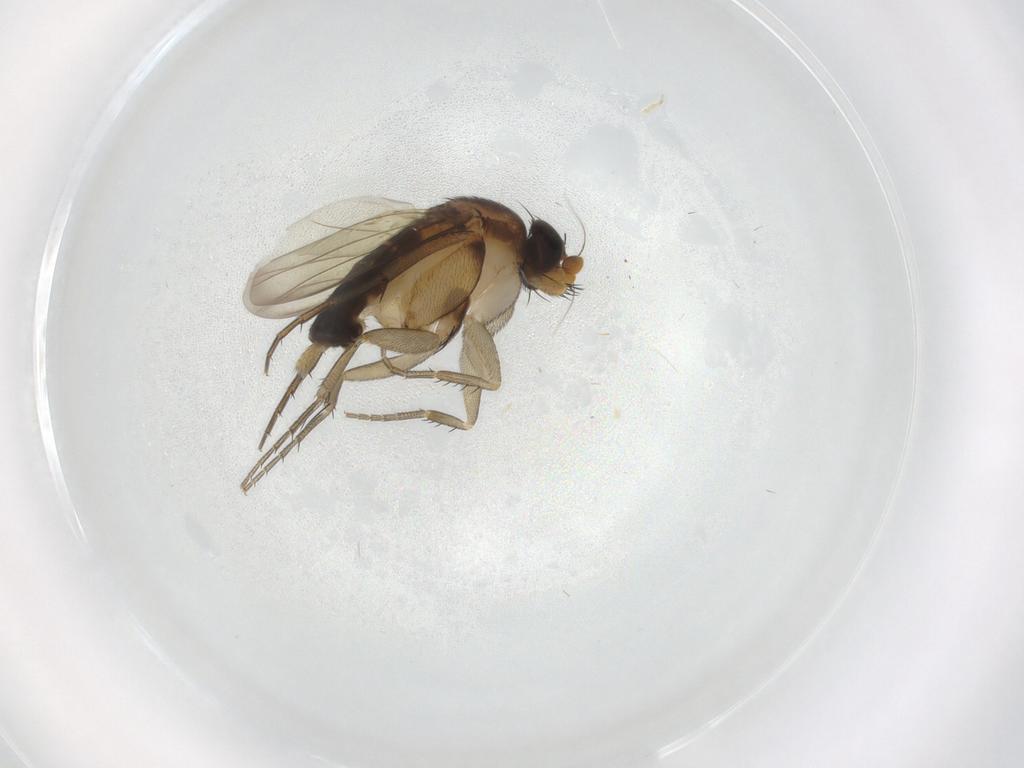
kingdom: Animalia
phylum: Arthropoda
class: Insecta
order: Diptera
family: Phoridae
